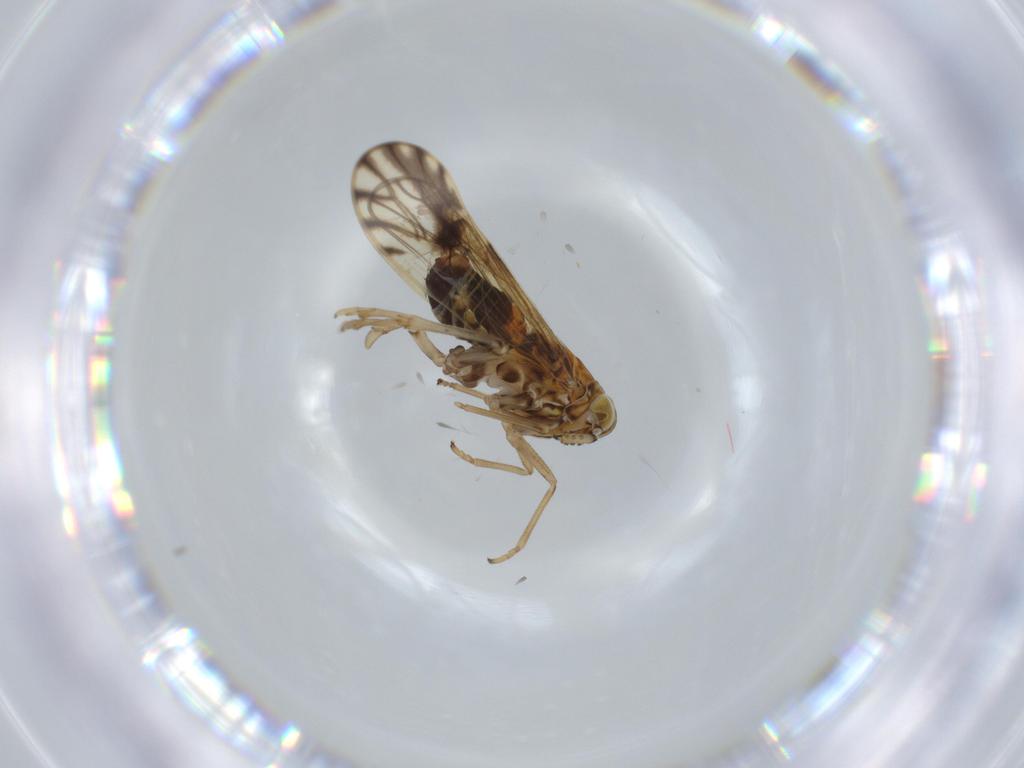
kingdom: Animalia
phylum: Arthropoda
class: Insecta
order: Hemiptera
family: Delphacidae
